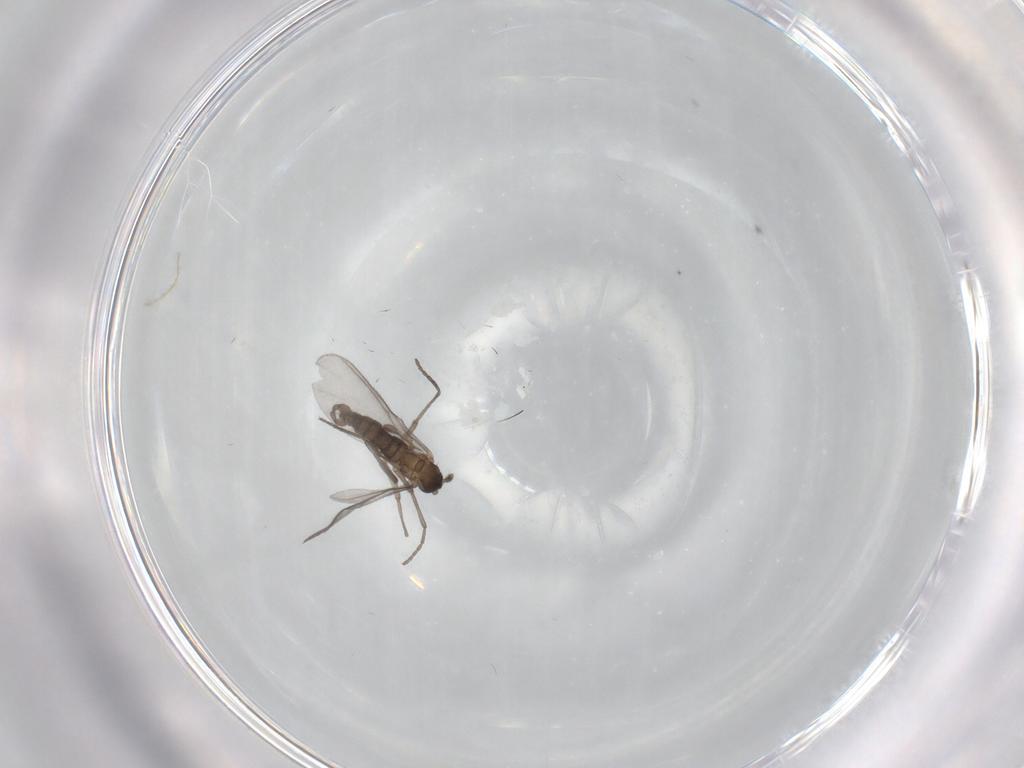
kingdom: Animalia
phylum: Arthropoda
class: Insecta
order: Diptera
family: Sciaridae
